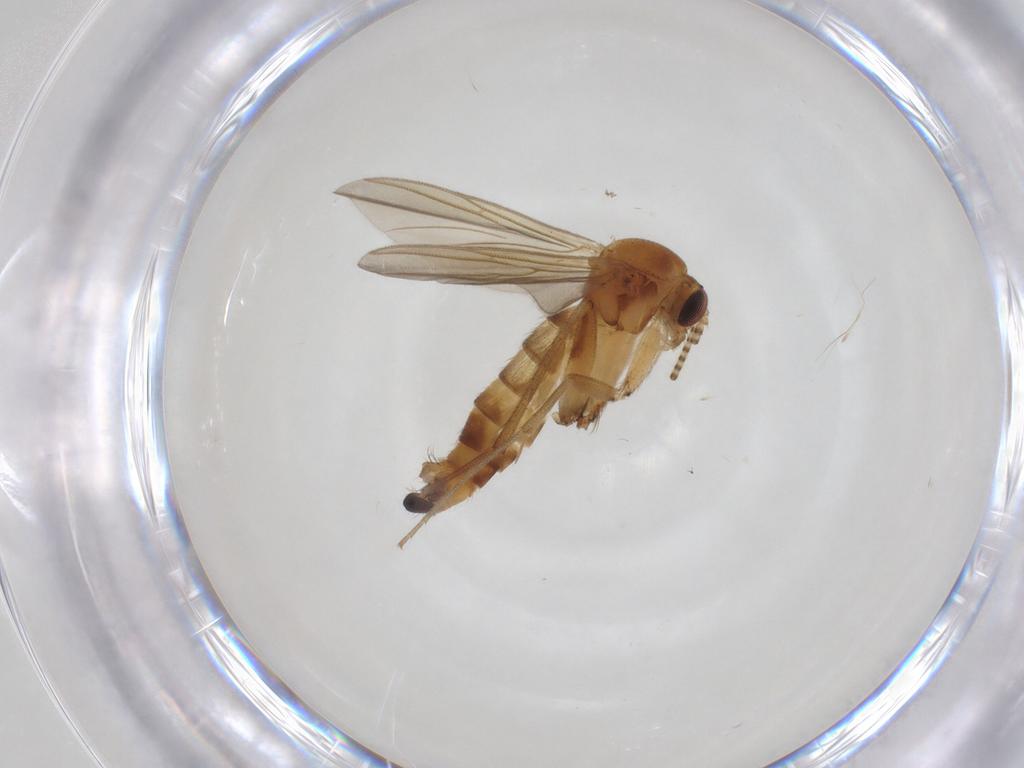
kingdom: Animalia
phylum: Arthropoda
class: Insecta
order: Diptera
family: Mycetophilidae
